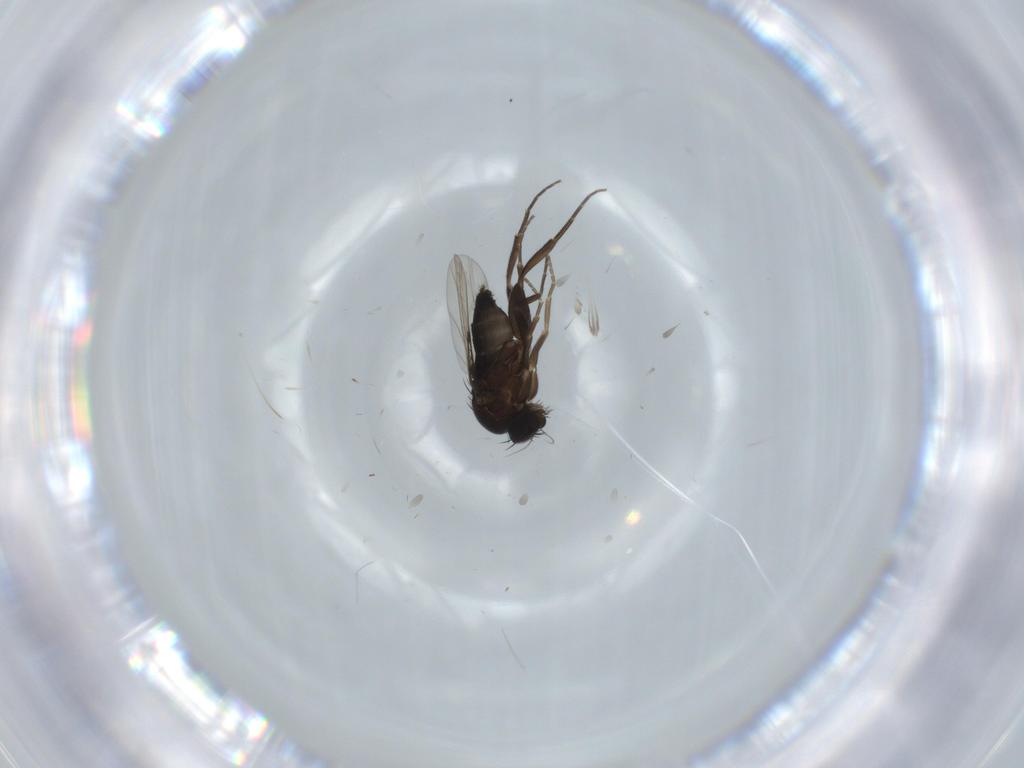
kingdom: Animalia
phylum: Arthropoda
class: Insecta
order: Diptera
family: Phoridae
